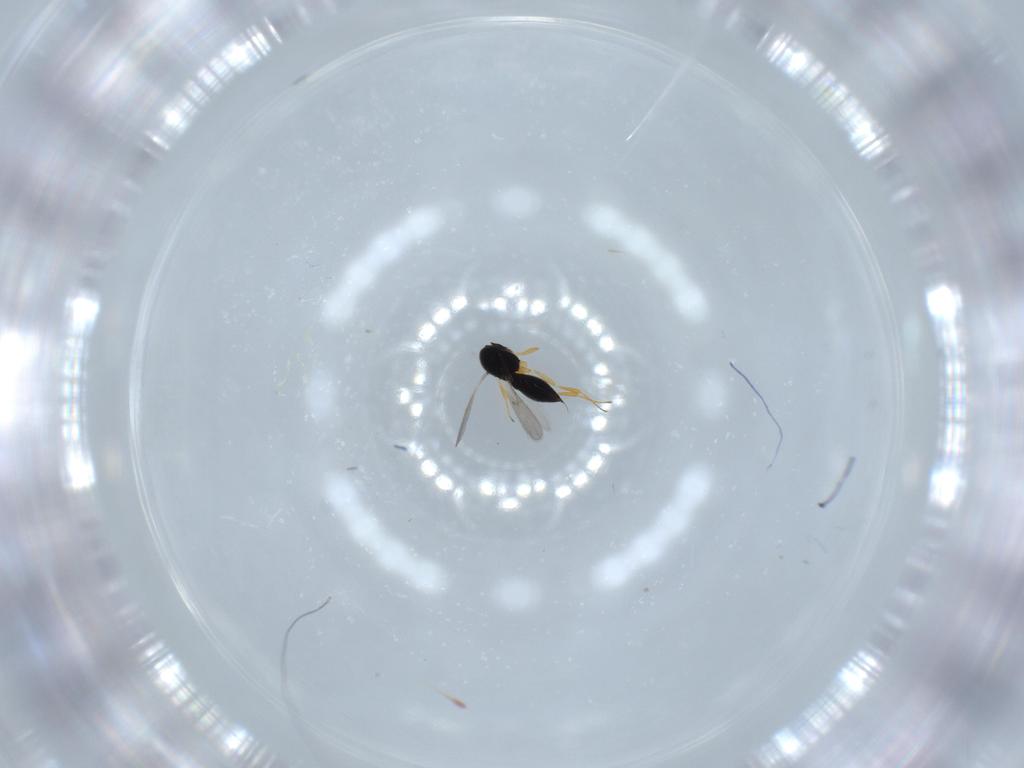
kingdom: Animalia
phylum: Arthropoda
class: Insecta
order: Hymenoptera
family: Scelionidae
